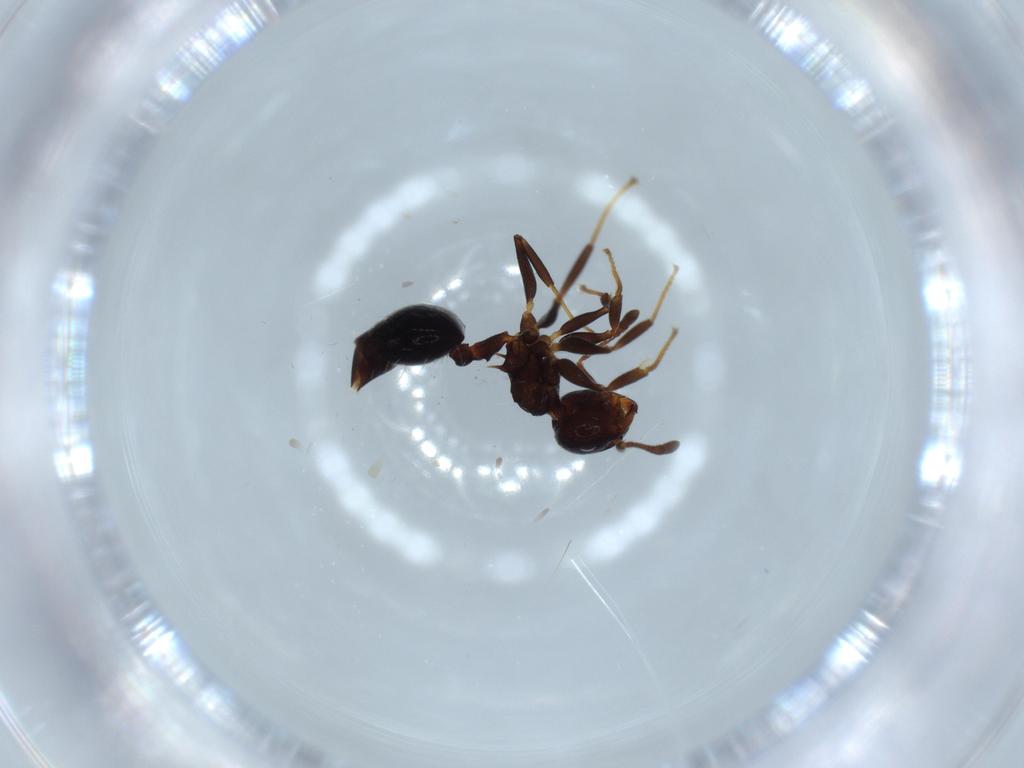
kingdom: Animalia
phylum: Arthropoda
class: Insecta
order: Hymenoptera
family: Formicidae
